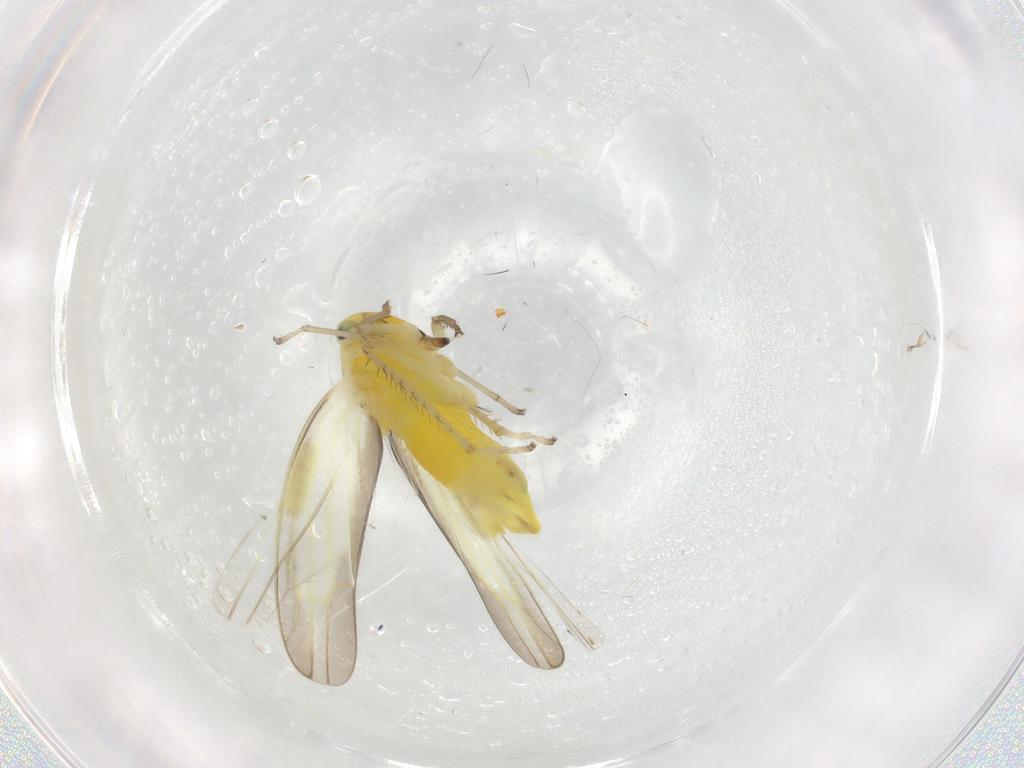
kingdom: Animalia
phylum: Arthropoda
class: Insecta
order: Hemiptera
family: Cicadellidae
